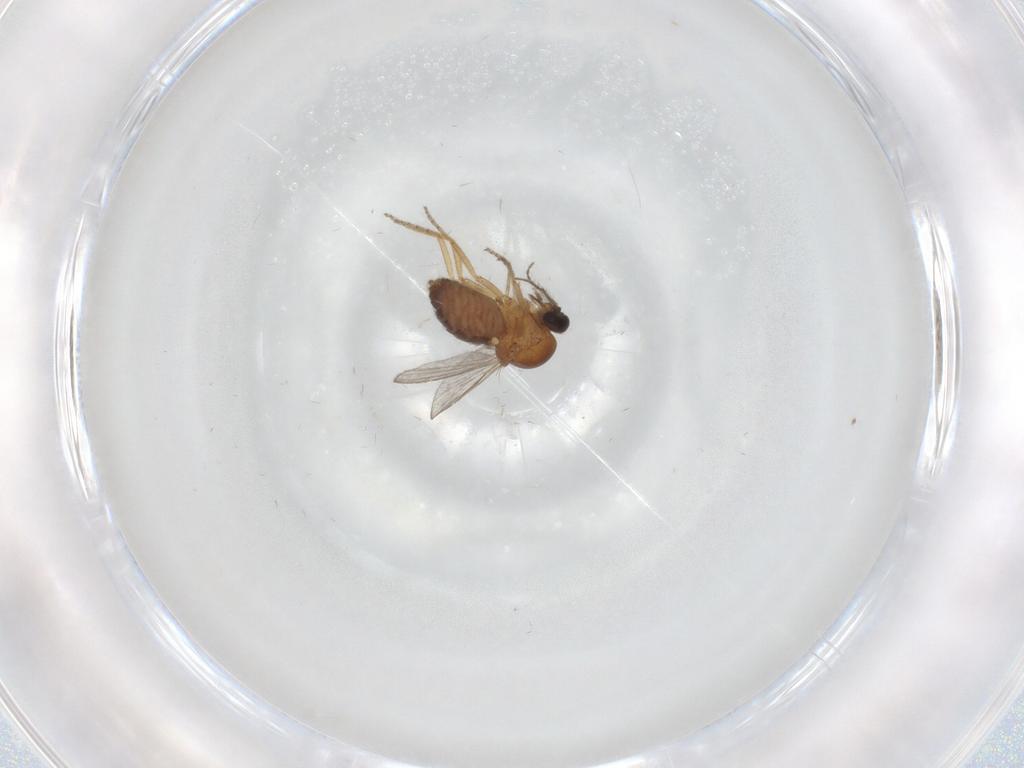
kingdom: Animalia
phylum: Arthropoda
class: Insecta
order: Diptera
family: Ceratopogonidae
